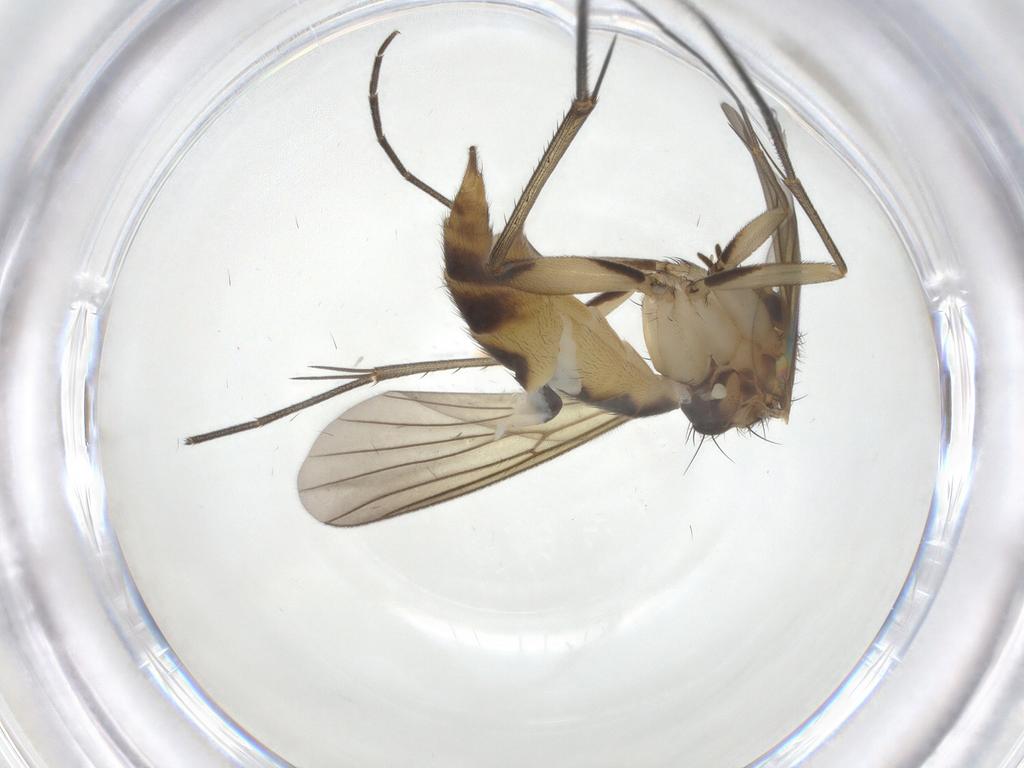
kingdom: Animalia
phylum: Arthropoda
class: Insecta
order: Diptera
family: Mycetophilidae
